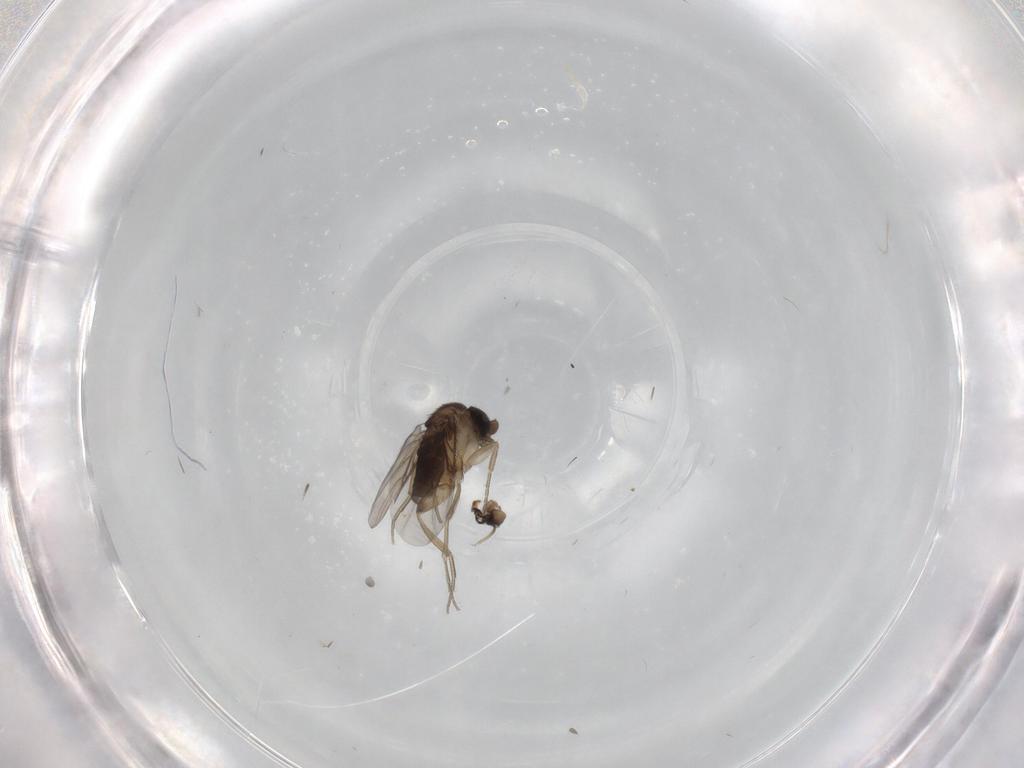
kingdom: Animalia
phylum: Arthropoda
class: Insecta
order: Diptera
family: Phoridae
